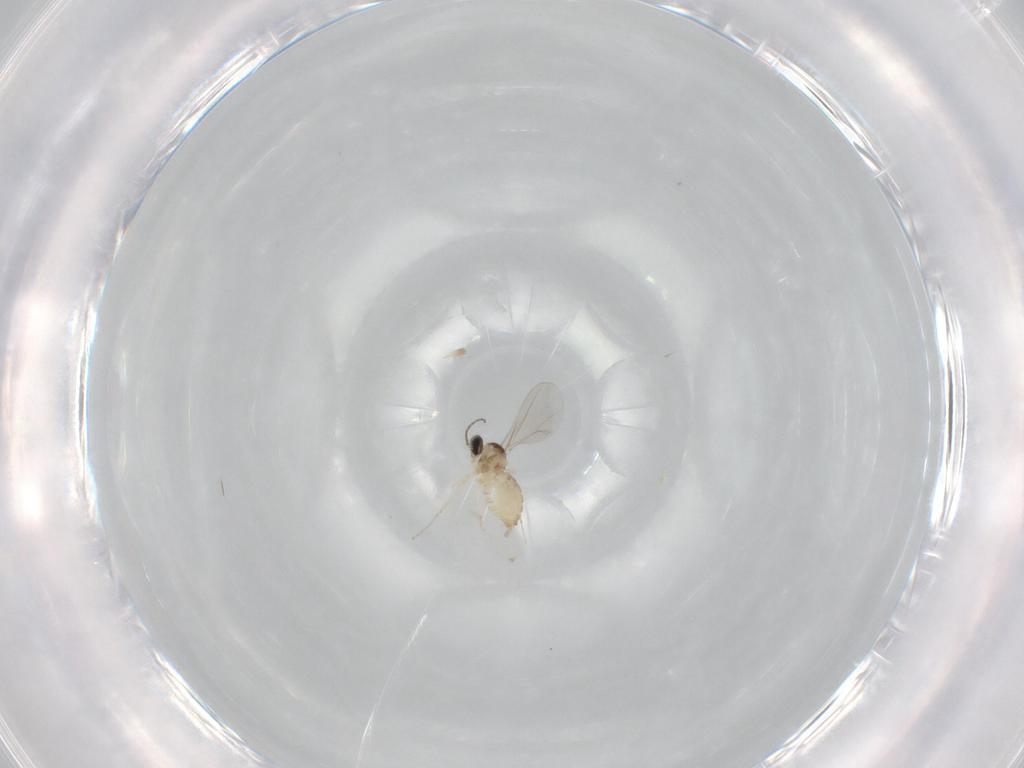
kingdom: Animalia
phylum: Arthropoda
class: Insecta
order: Diptera
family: Cecidomyiidae
